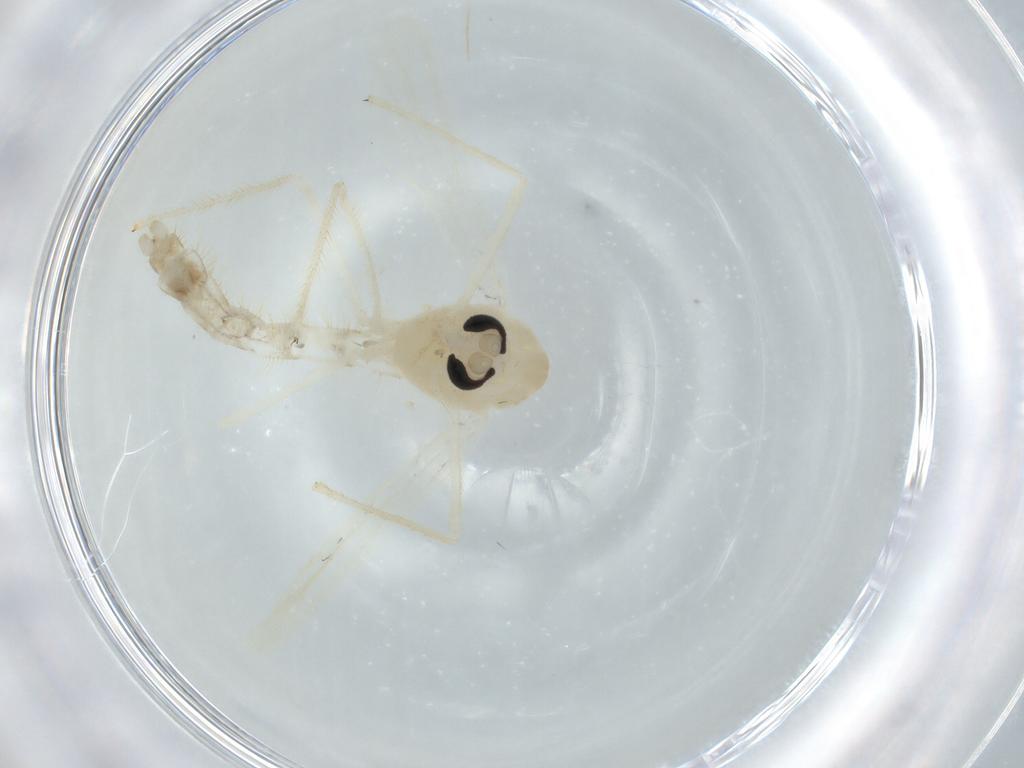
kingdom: Animalia
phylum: Arthropoda
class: Insecta
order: Diptera
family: Chironomidae
